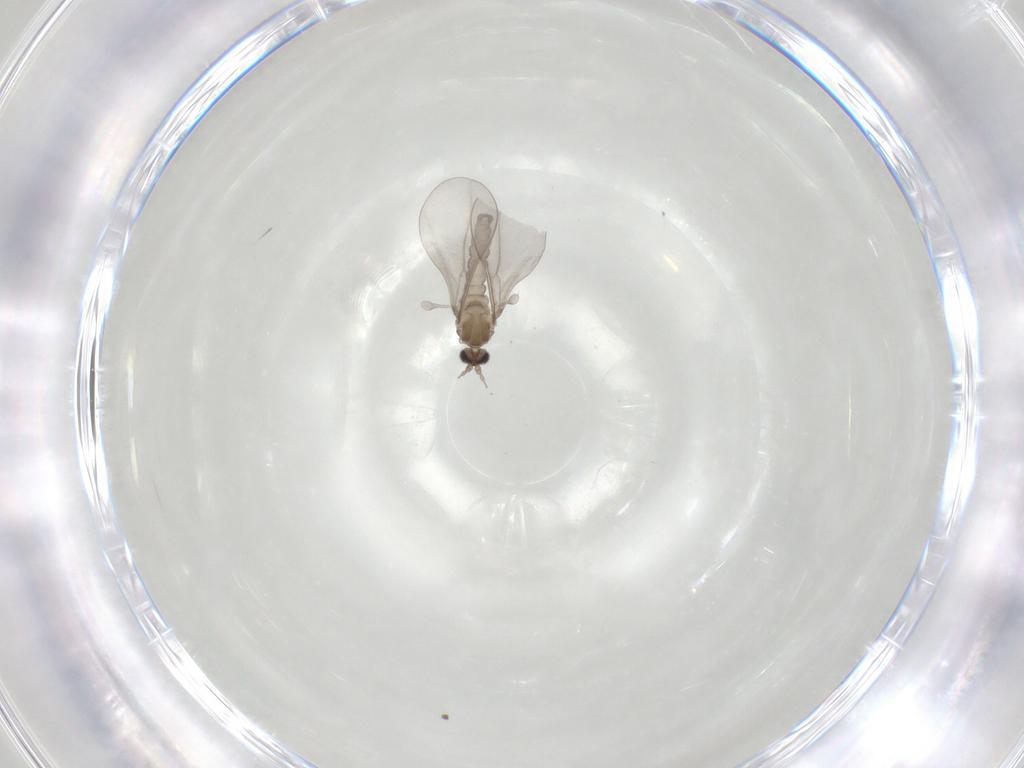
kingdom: Animalia
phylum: Arthropoda
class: Insecta
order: Diptera
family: Cecidomyiidae
